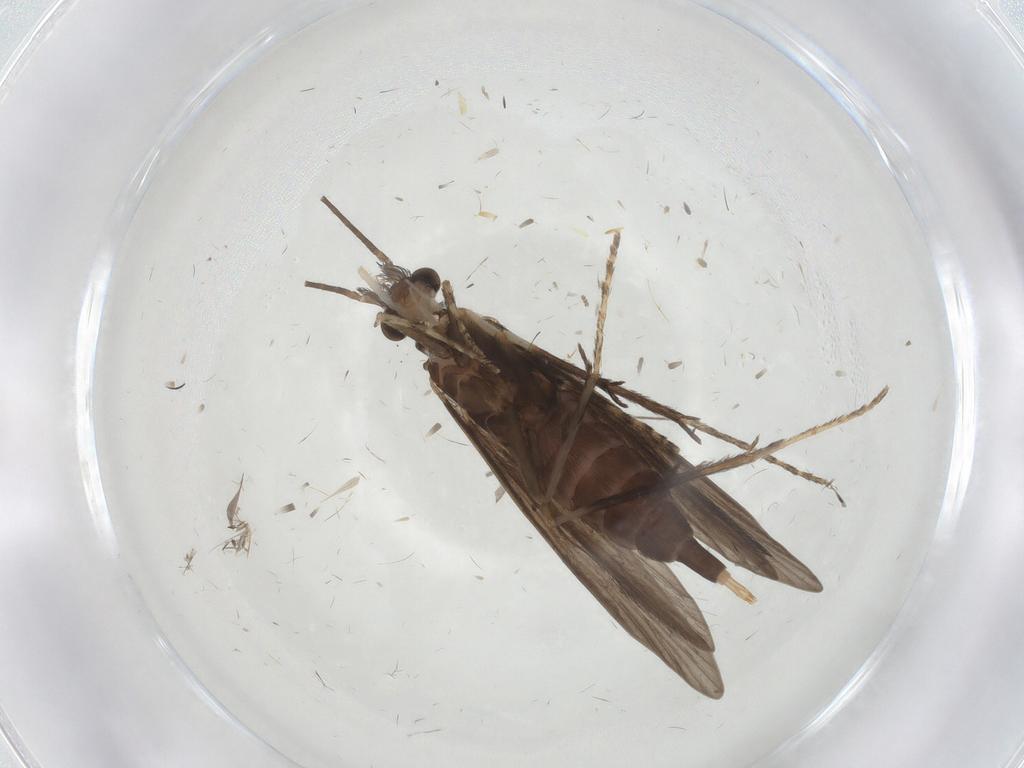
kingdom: Animalia
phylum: Arthropoda
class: Insecta
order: Trichoptera
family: Xiphocentronidae
